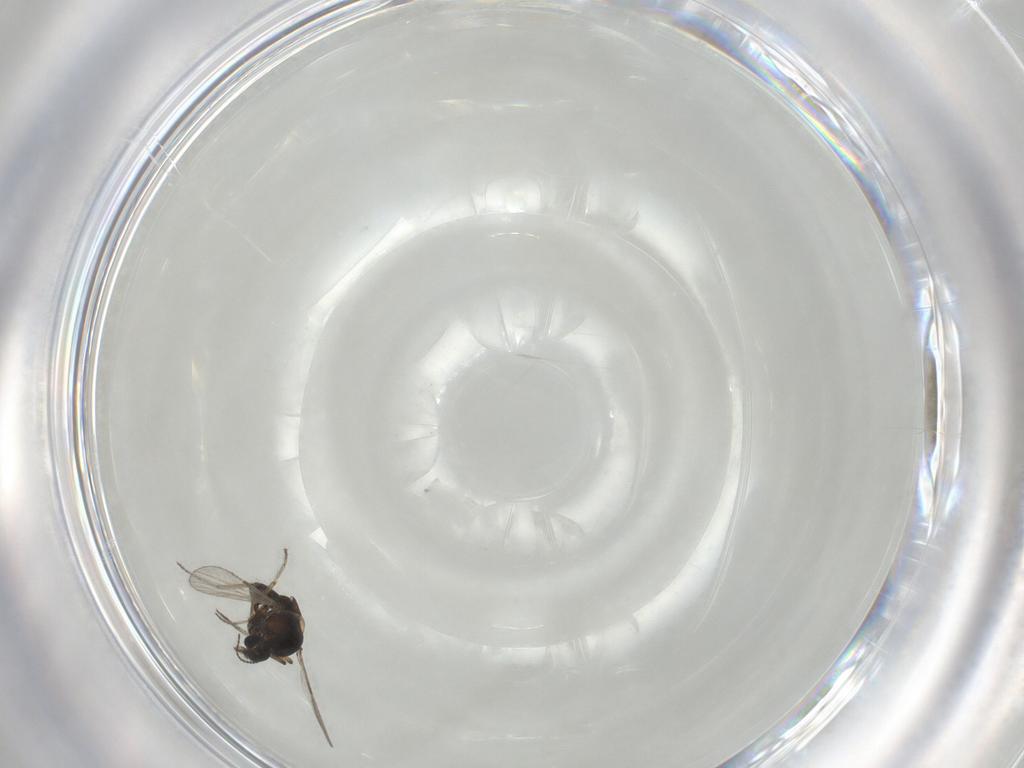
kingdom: Animalia
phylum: Arthropoda
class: Insecta
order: Diptera
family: Ceratopogonidae
